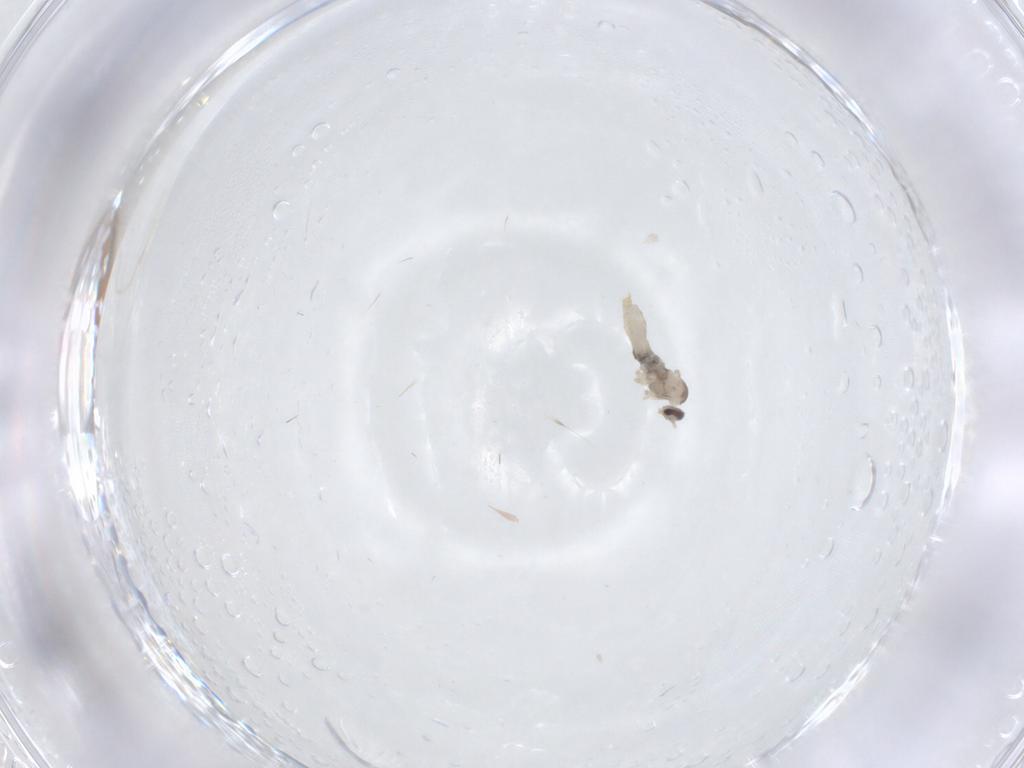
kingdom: Animalia
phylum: Arthropoda
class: Insecta
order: Diptera
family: Cecidomyiidae
